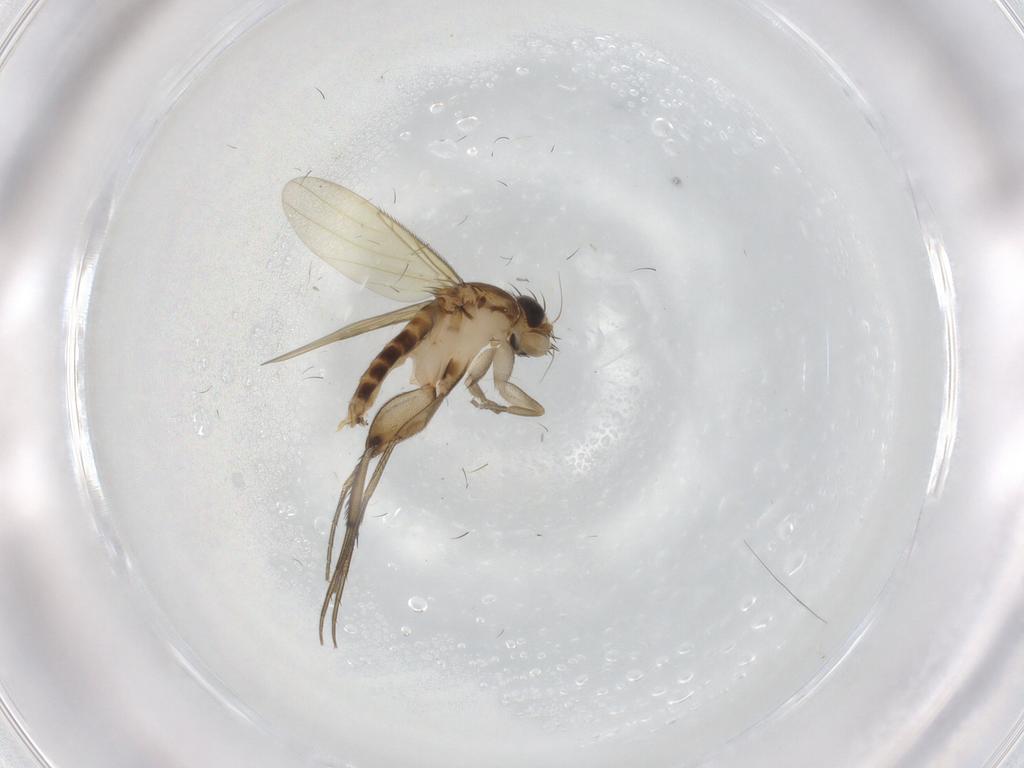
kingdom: Animalia
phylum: Arthropoda
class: Insecta
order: Diptera
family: Phoridae
